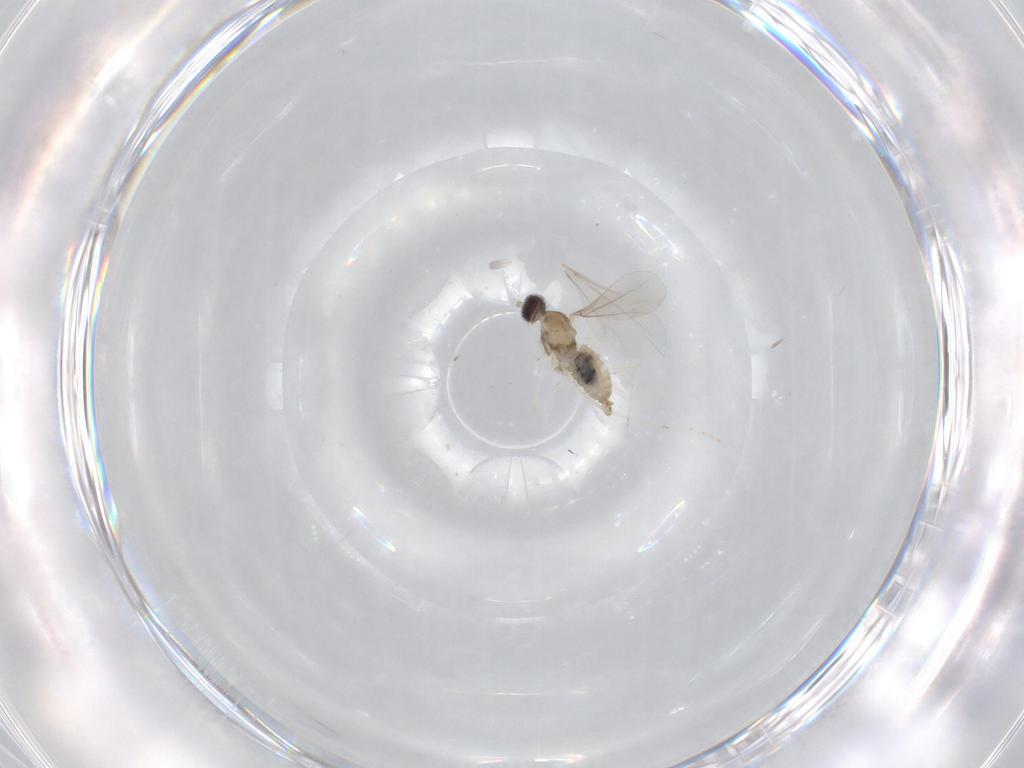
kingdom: Animalia
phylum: Arthropoda
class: Insecta
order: Diptera
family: Cecidomyiidae
